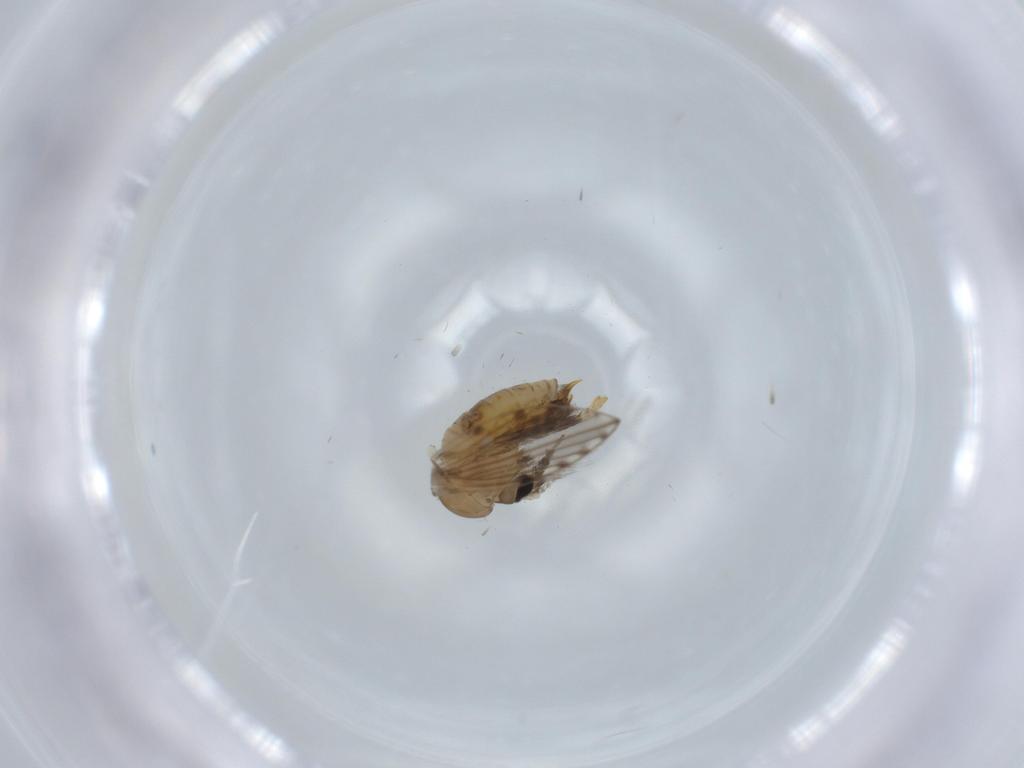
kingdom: Animalia
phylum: Arthropoda
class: Insecta
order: Diptera
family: Psychodidae
